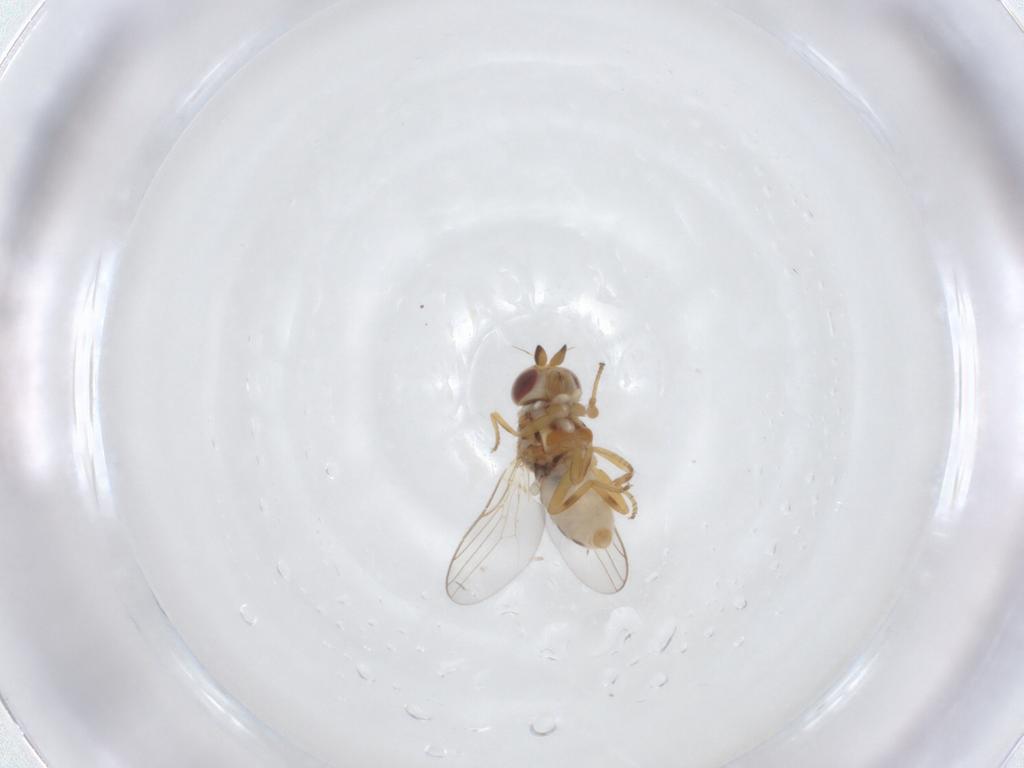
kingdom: Animalia
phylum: Arthropoda
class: Insecta
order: Diptera
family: Chloropidae
